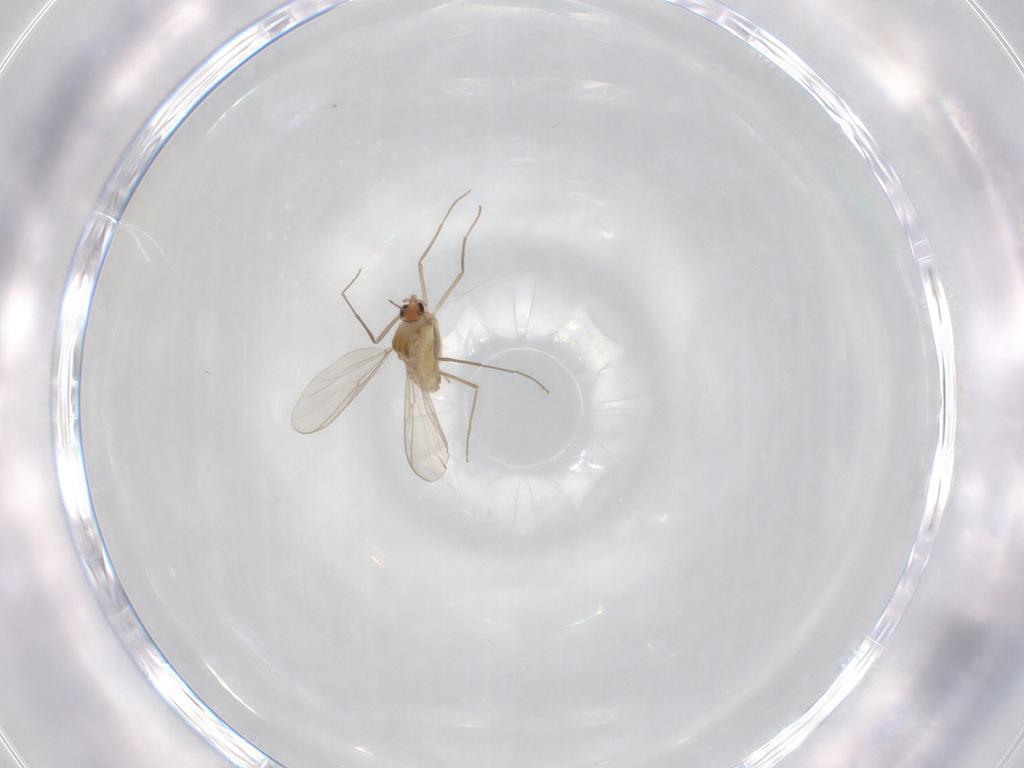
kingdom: Animalia
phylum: Arthropoda
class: Insecta
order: Diptera
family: Chironomidae
